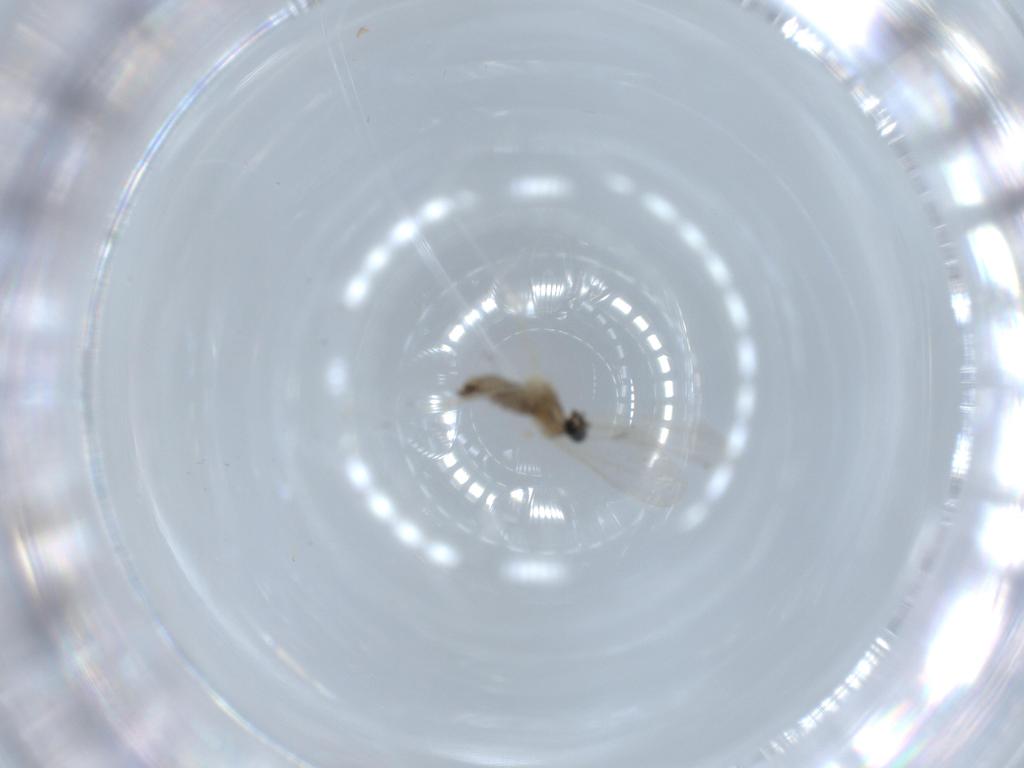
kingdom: Animalia
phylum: Arthropoda
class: Insecta
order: Diptera
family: Cecidomyiidae
